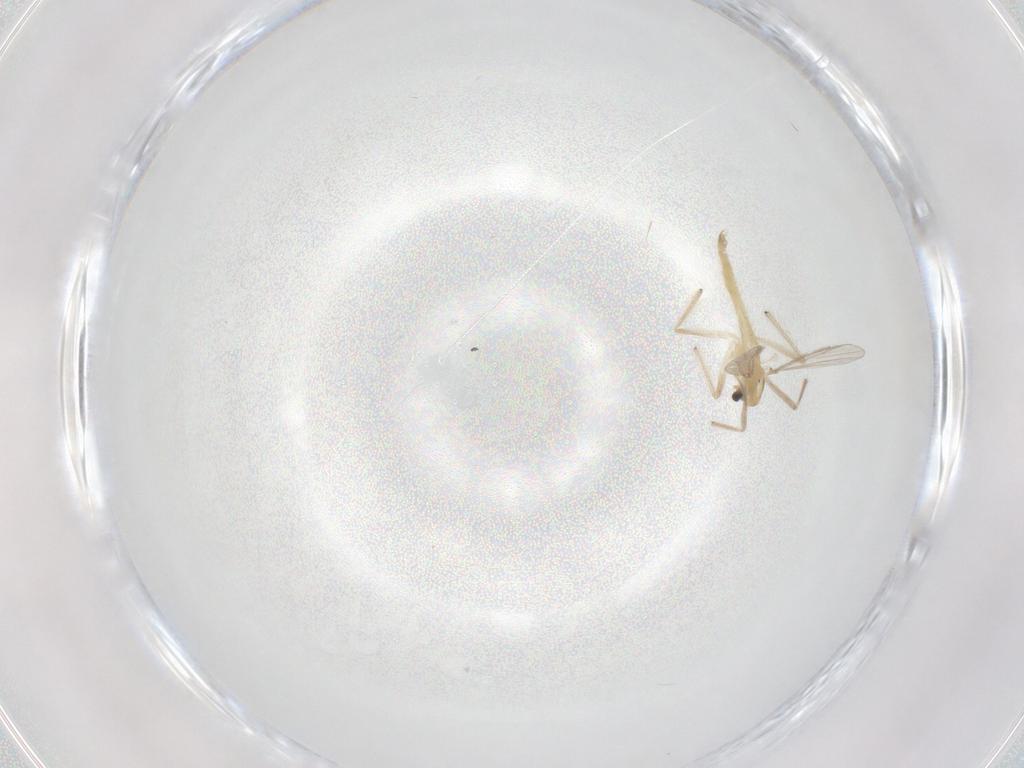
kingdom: Animalia
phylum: Arthropoda
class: Insecta
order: Diptera
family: Chironomidae
